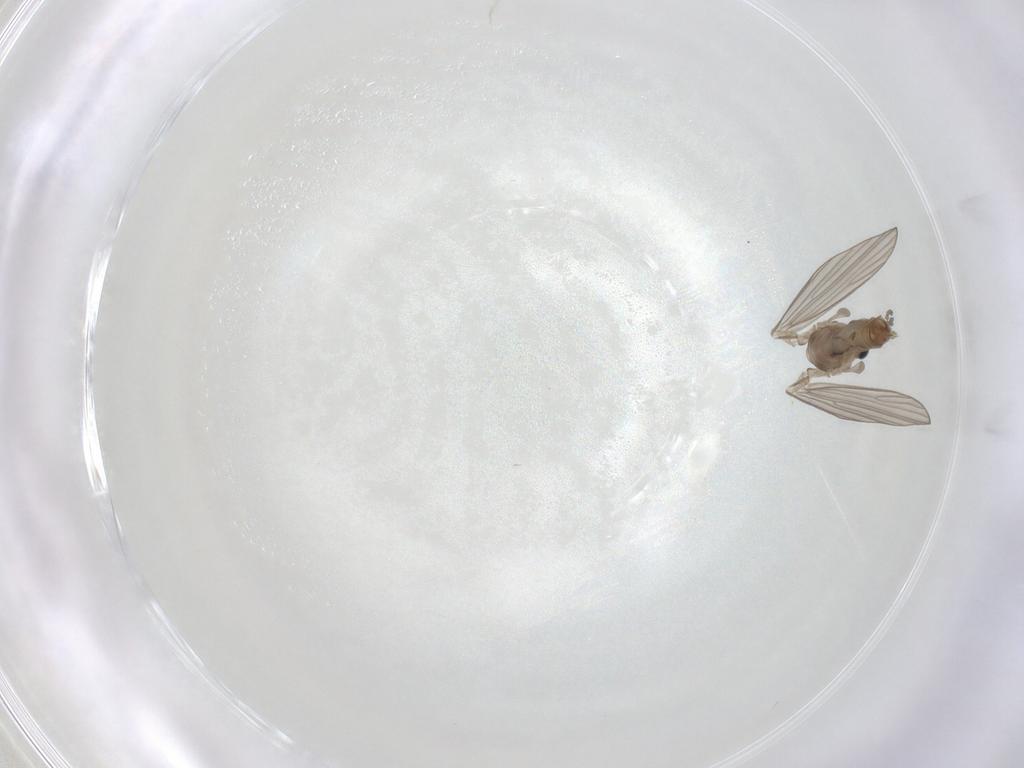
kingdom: Animalia
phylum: Arthropoda
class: Insecta
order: Diptera
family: Psychodidae
